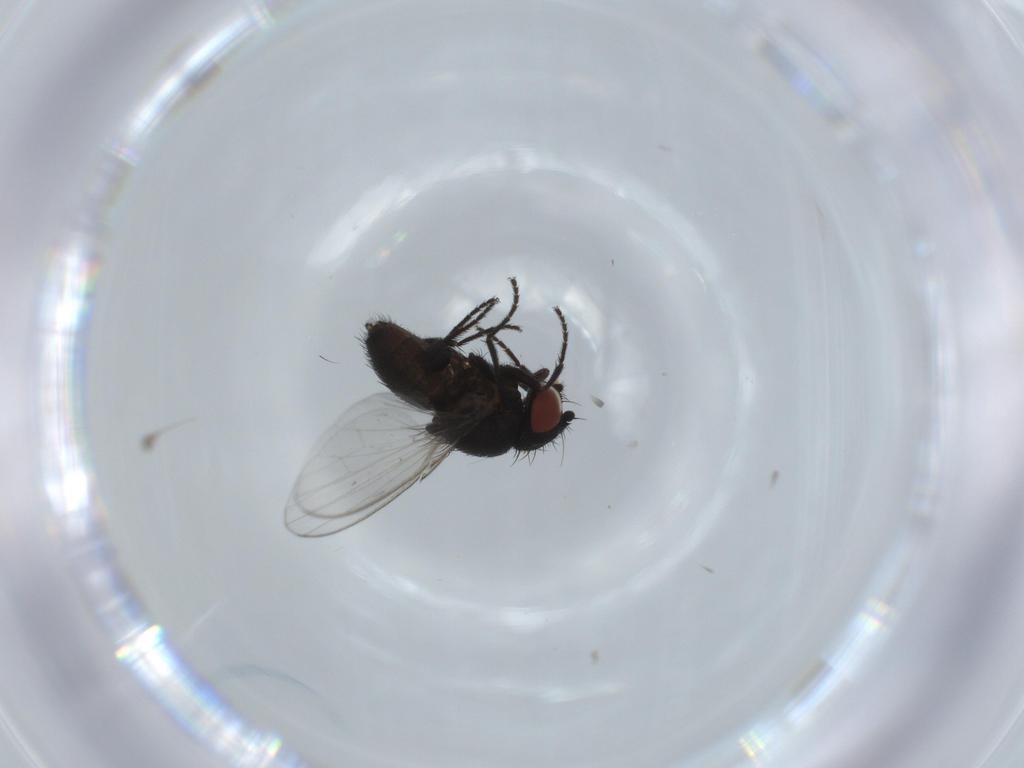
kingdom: Animalia
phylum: Arthropoda
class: Insecta
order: Diptera
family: Milichiidae
